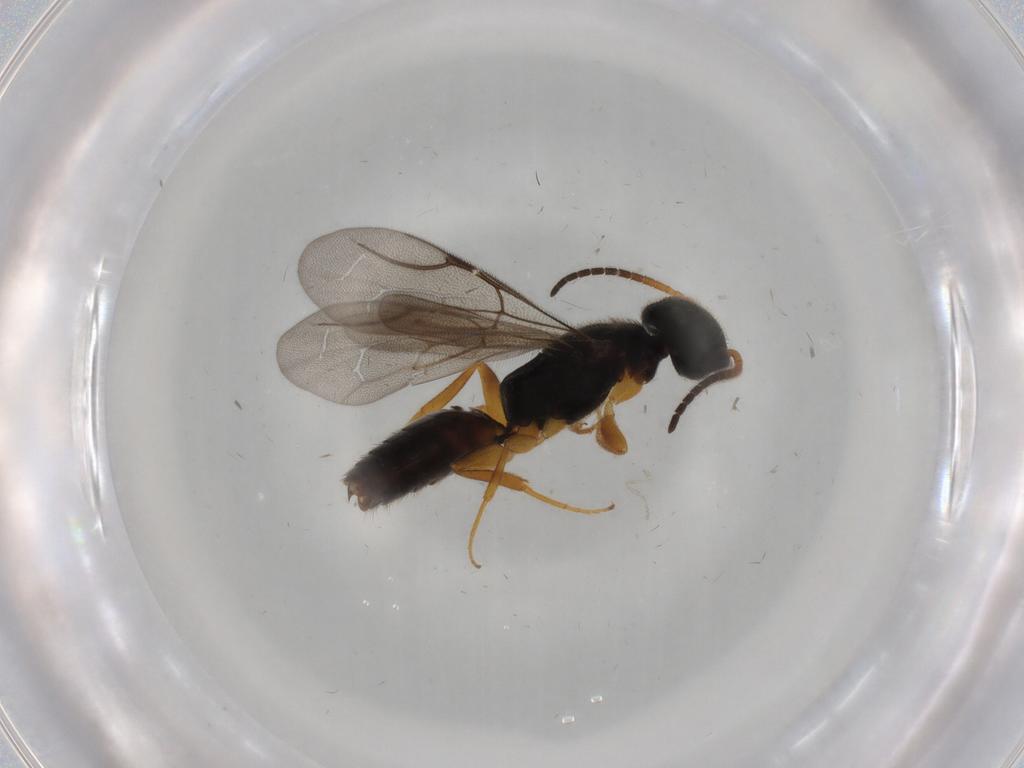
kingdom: Animalia
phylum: Arthropoda
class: Insecta
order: Hymenoptera
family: Bethylidae
